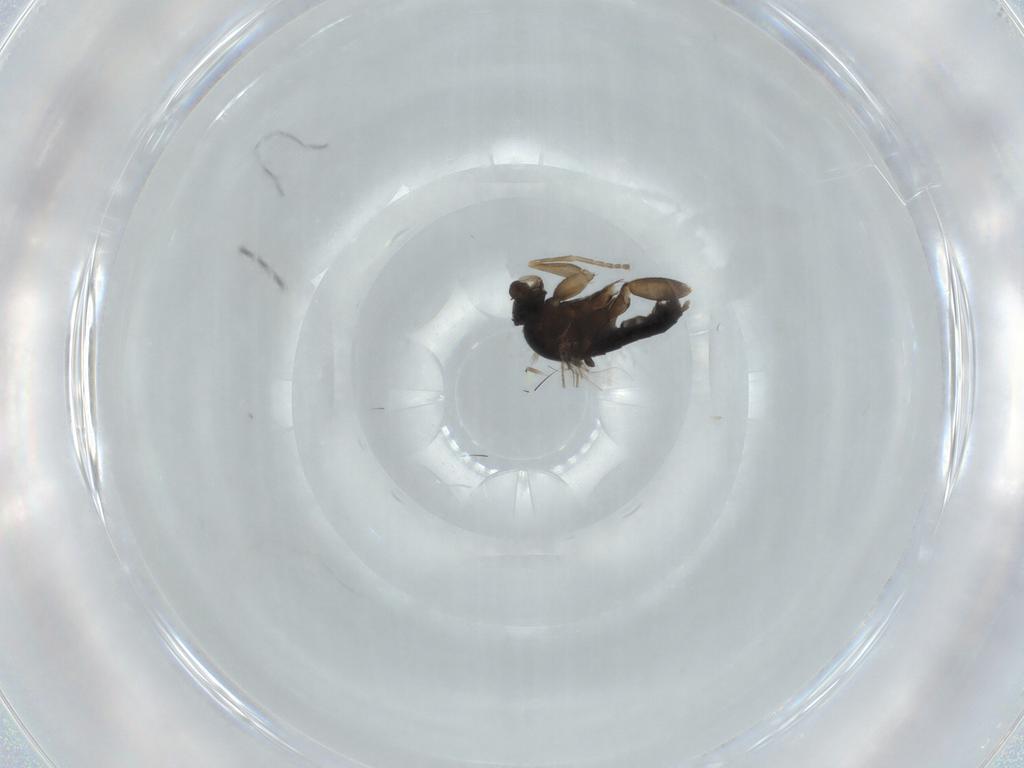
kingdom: Animalia
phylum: Arthropoda
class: Insecta
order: Diptera
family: Phoridae
